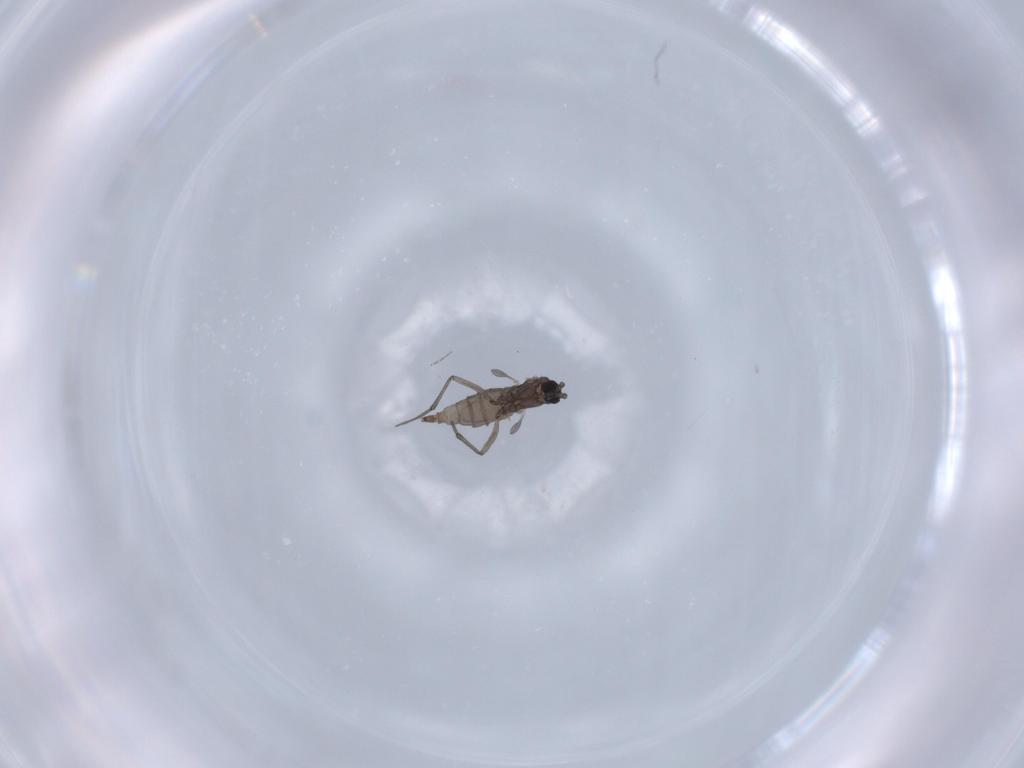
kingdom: Animalia
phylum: Arthropoda
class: Insecta
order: Diptera
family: Sciaridae
